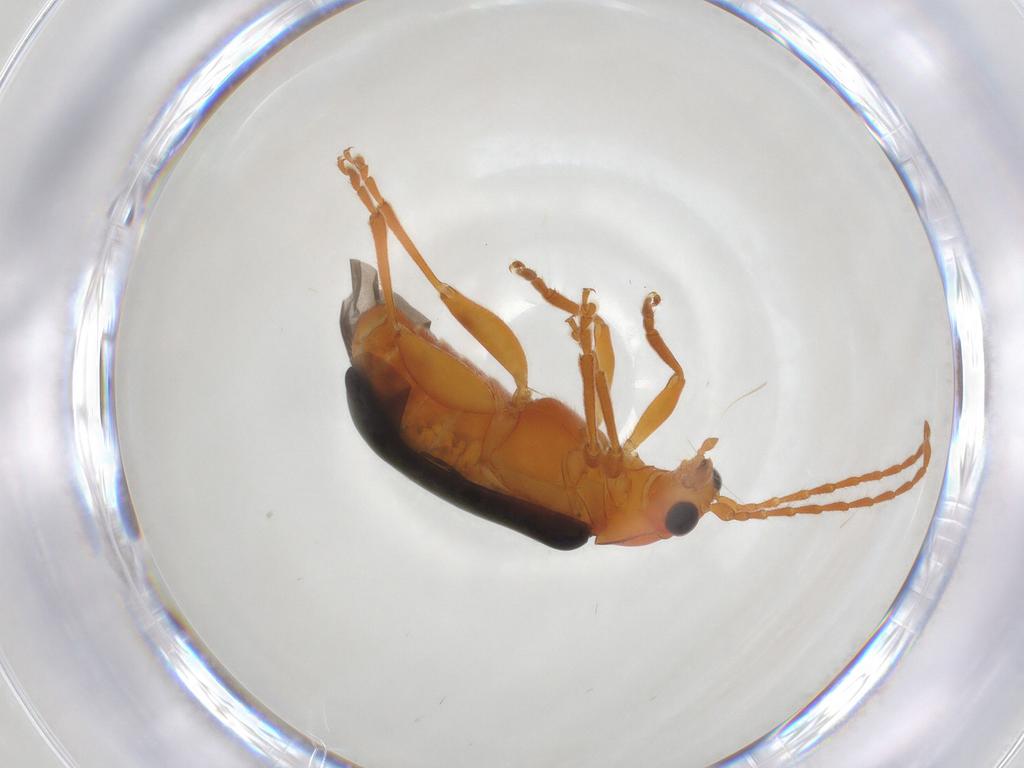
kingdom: Animalia
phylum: Arthropoda
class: Insecta
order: Coleoptera
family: Chrysomelidae
